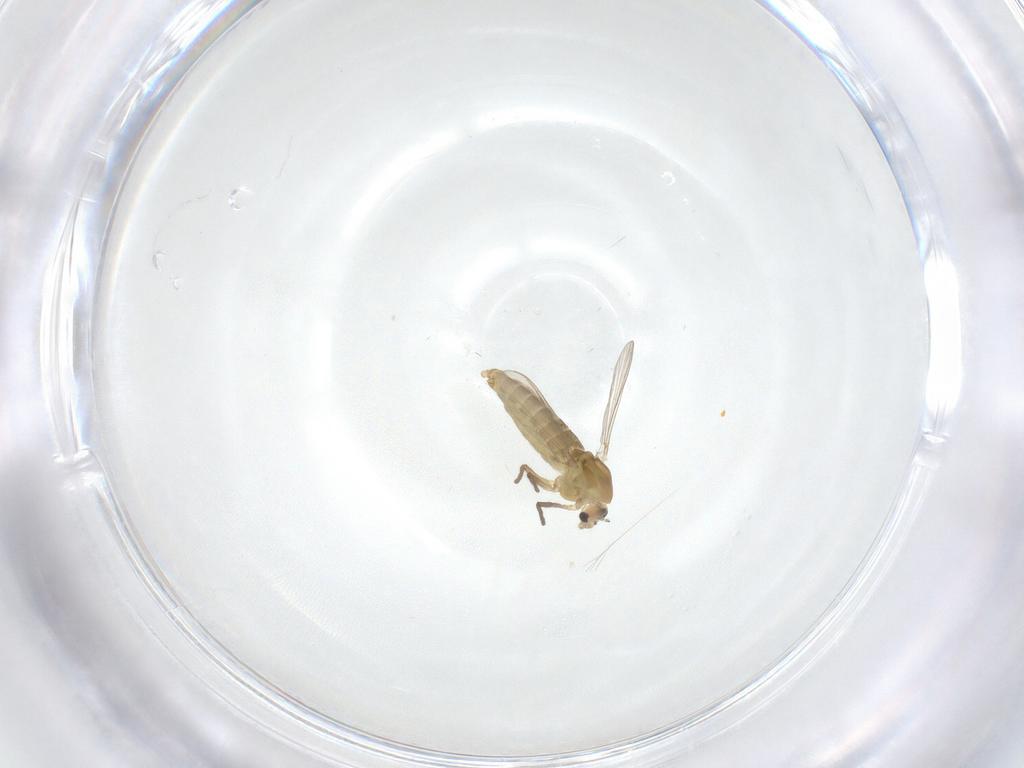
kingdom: Animalia
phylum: Arthropoda
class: Insecta
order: Diptera
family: Chironomidae
